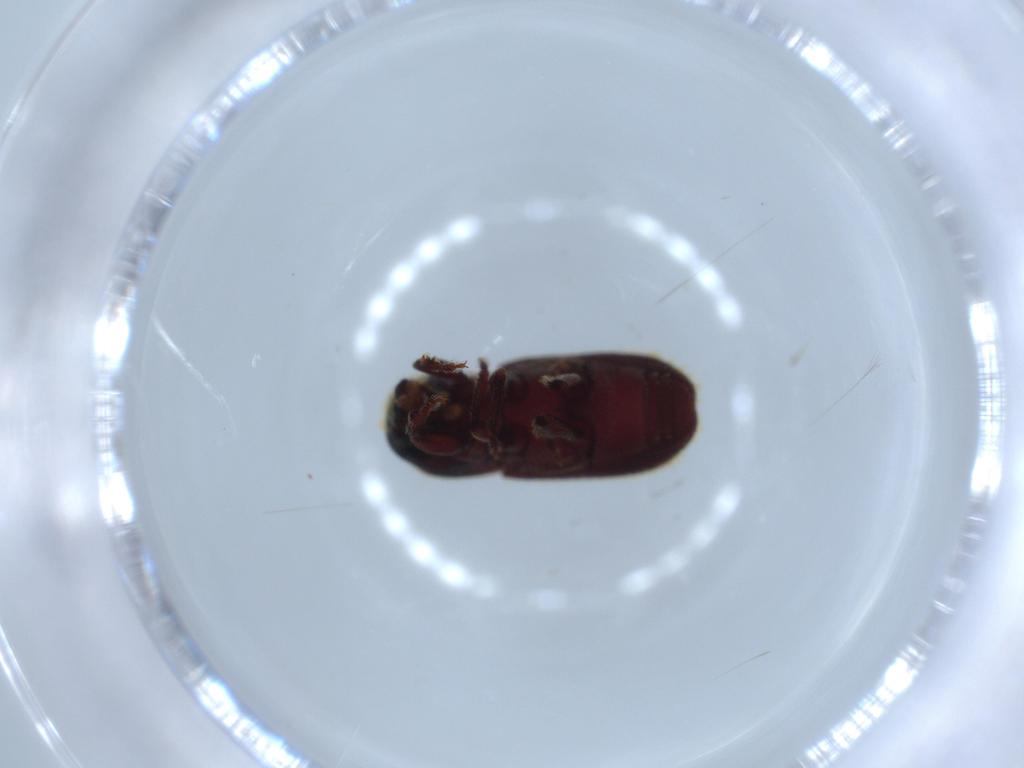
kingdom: Animalia
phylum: Arthropoda
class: Insecta
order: Coleoptera
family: Curculionidae
